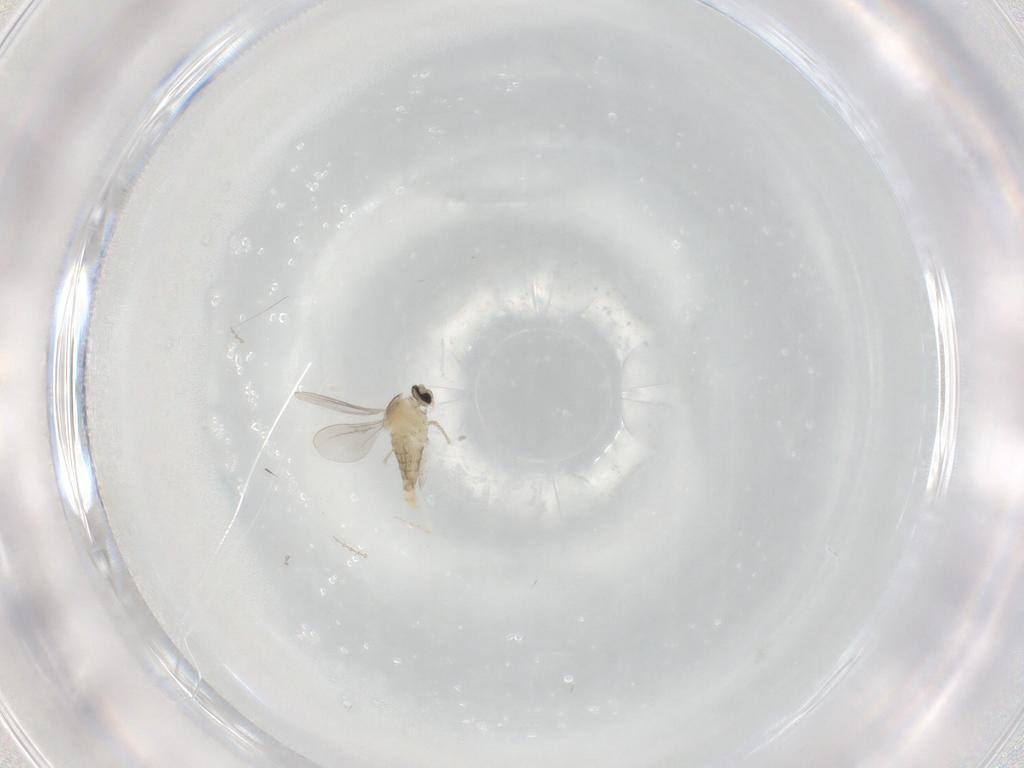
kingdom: Animalia
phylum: Arthropoda
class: Insecta
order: Diptera
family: Cecidomyiidae
